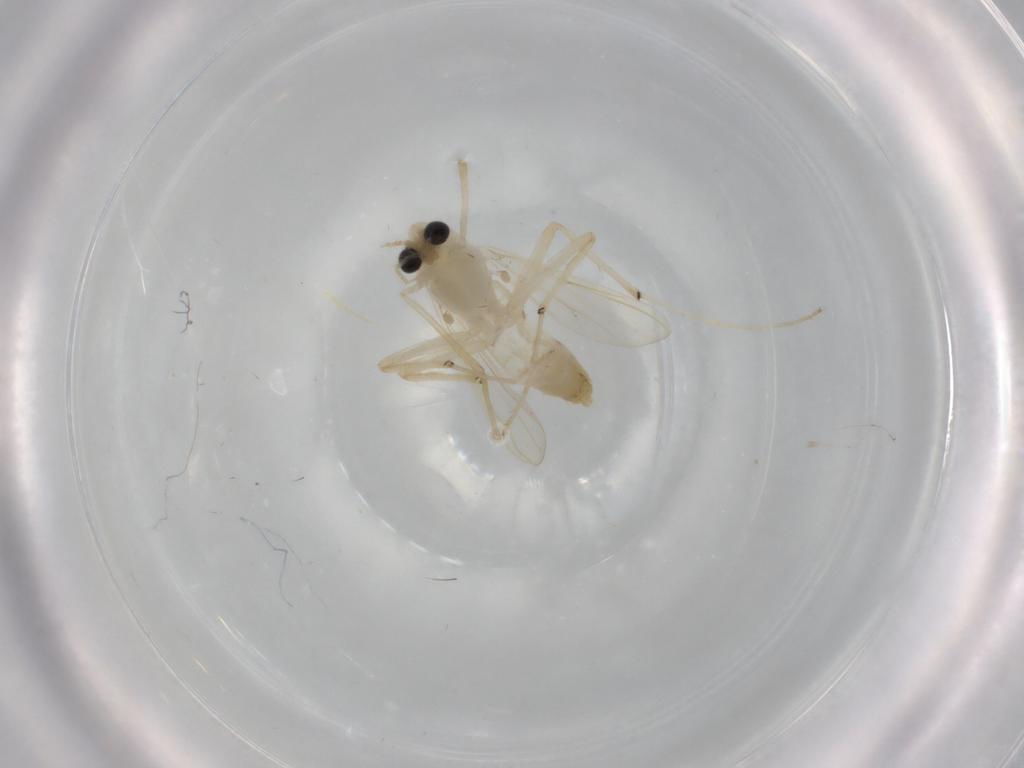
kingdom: Animalia
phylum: Arthropoda
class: Insecta
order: Diptera
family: Chironomidae
